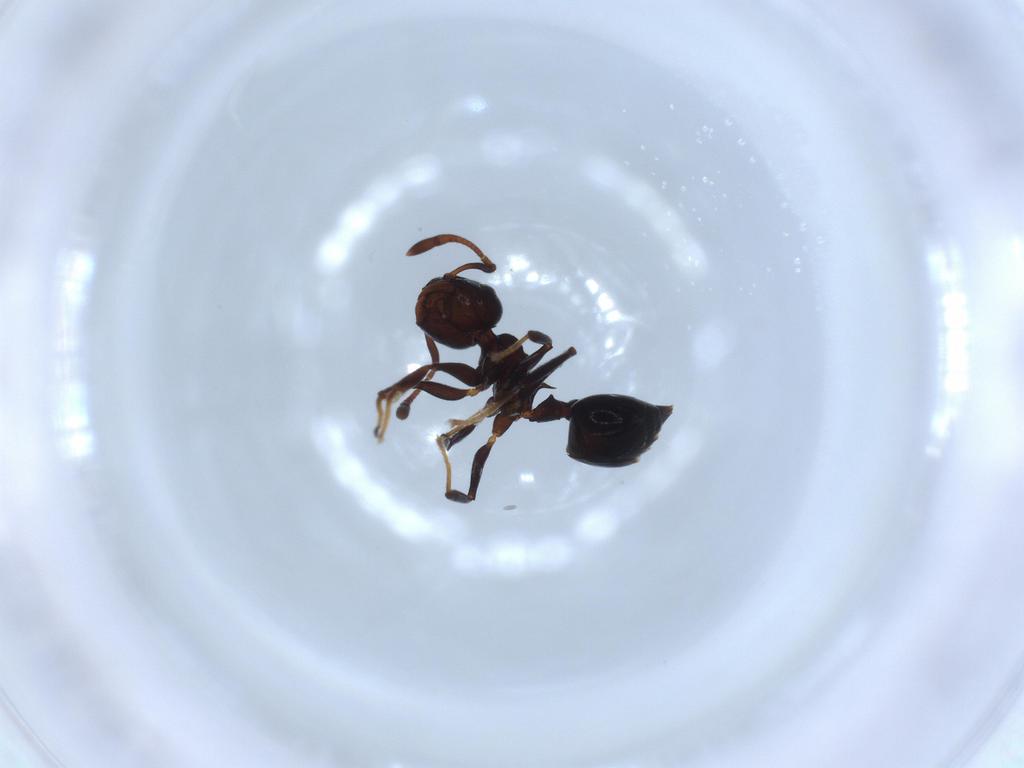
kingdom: Animalia
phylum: Arthropoda
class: Insecta
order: Hymenoptera
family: Formicidae
